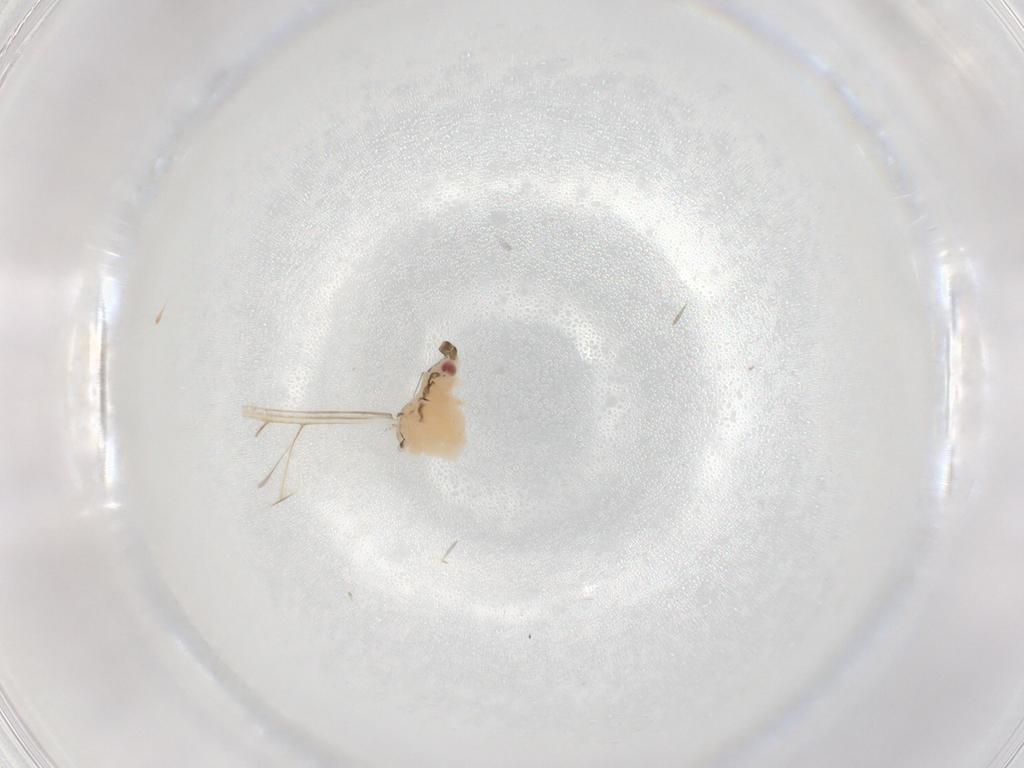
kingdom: Animalia
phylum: Arthropoda
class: Insecta
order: Hemiptera
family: Aphididae
